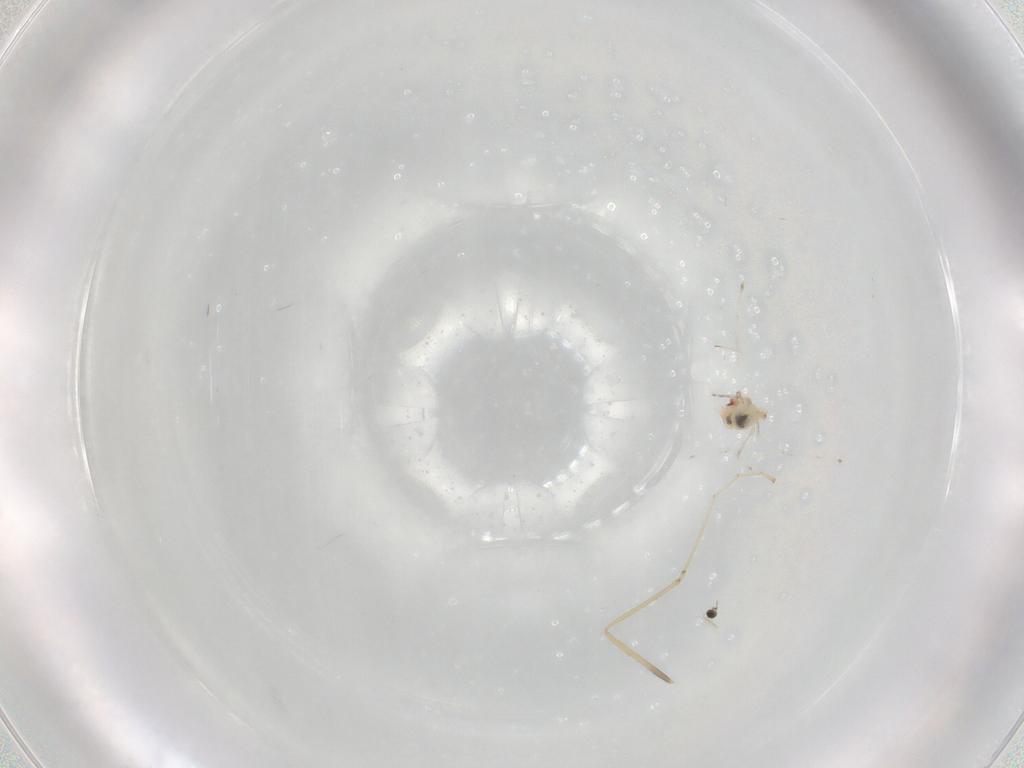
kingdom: Animalia
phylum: Arthropoda
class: Insecta
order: Diptera
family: Chironomidae
